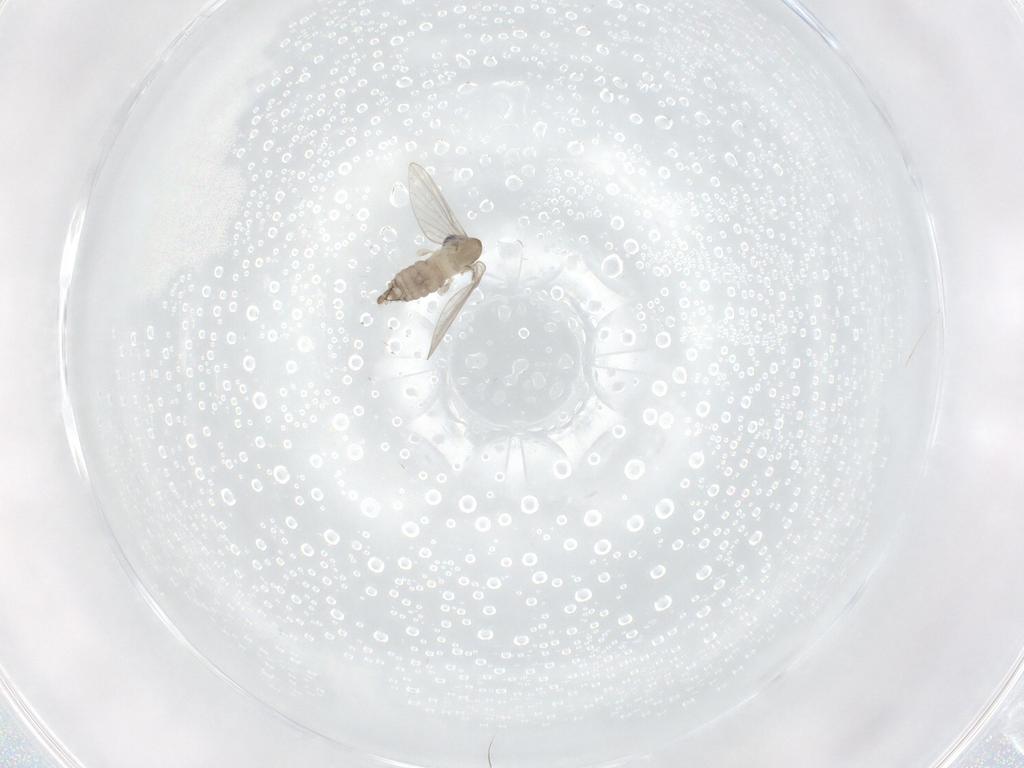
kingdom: Animalia
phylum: Arthropoda
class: Insecta
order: Diptera
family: Psychodidae
